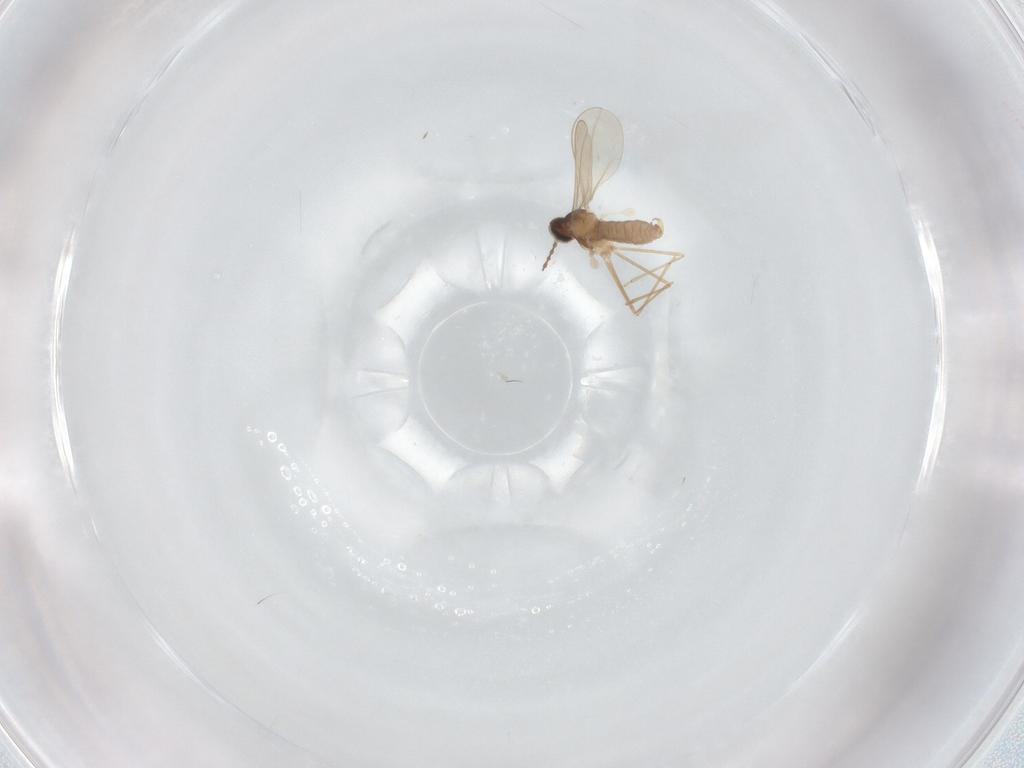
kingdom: Animalia
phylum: Arthropoda
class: Insecta
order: Diptera
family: Cecidomyiidae
